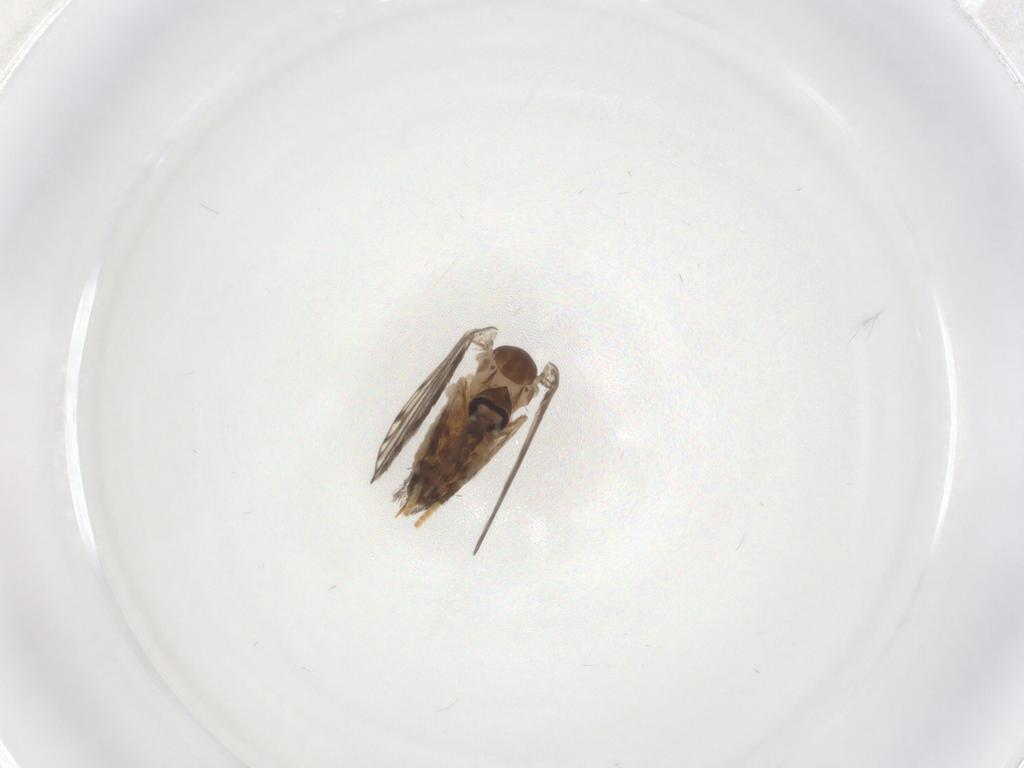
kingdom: Animalia
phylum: Arthropoda
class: Insecta
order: Diptera
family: Psychodidae
